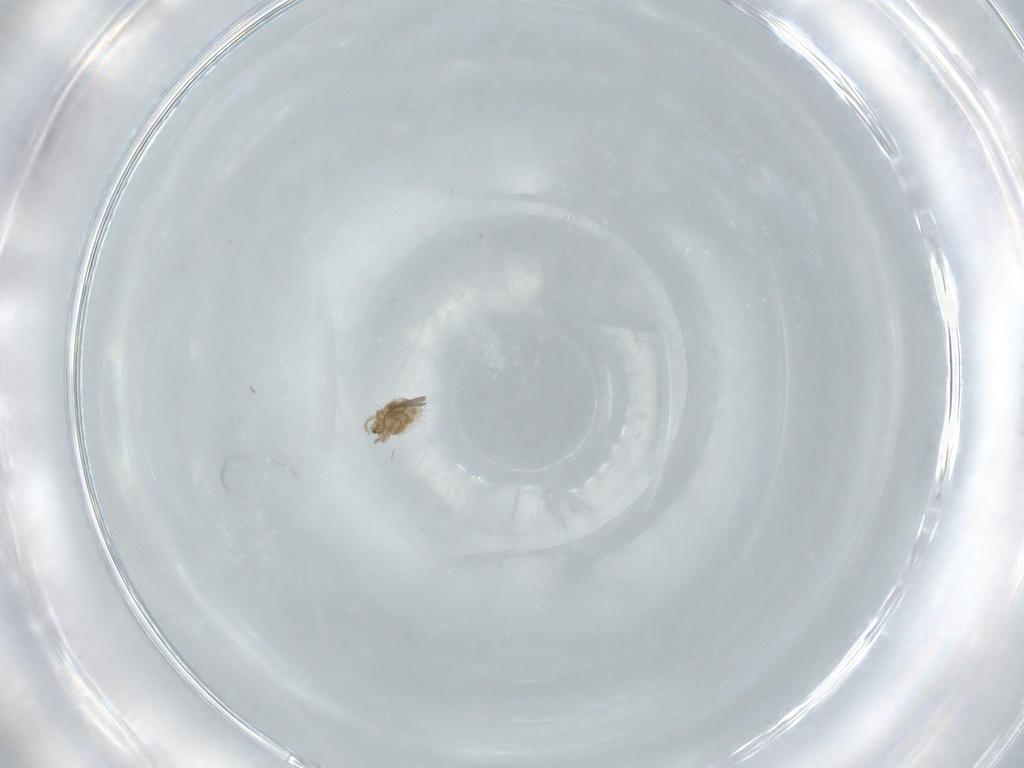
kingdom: Animalia
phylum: Arthropoda
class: Arachnida
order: Trombidiformes
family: Anystidae
